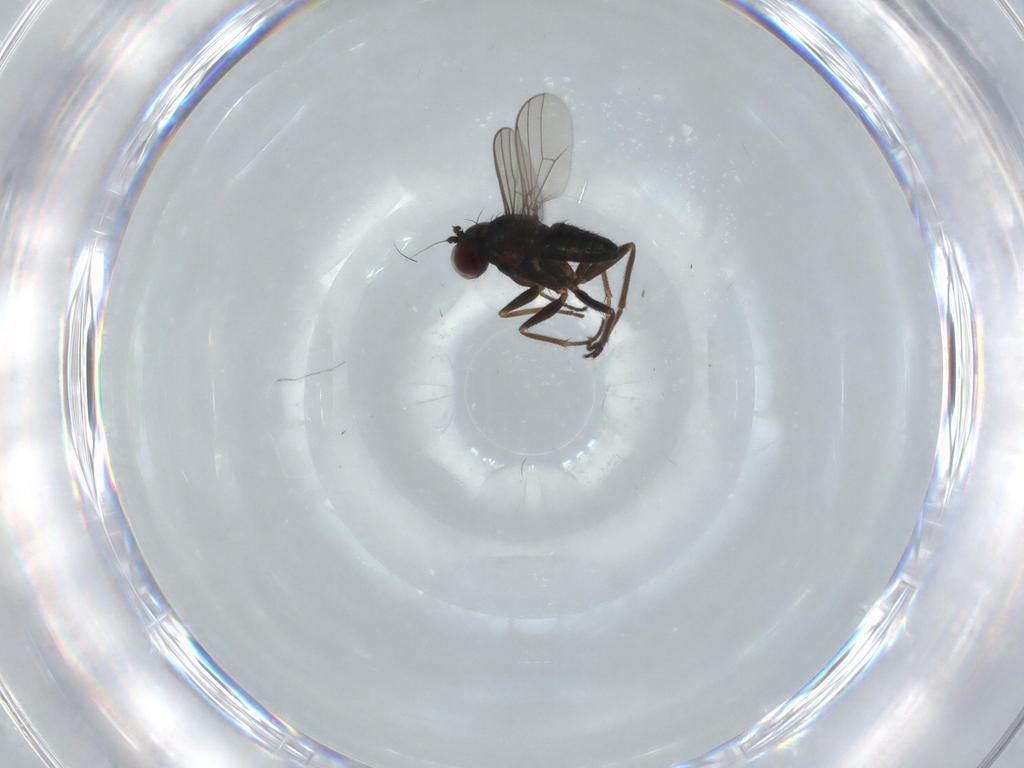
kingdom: Animalia
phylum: Arthropoda
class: Insecta
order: Diptera
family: Dolichopodidae
